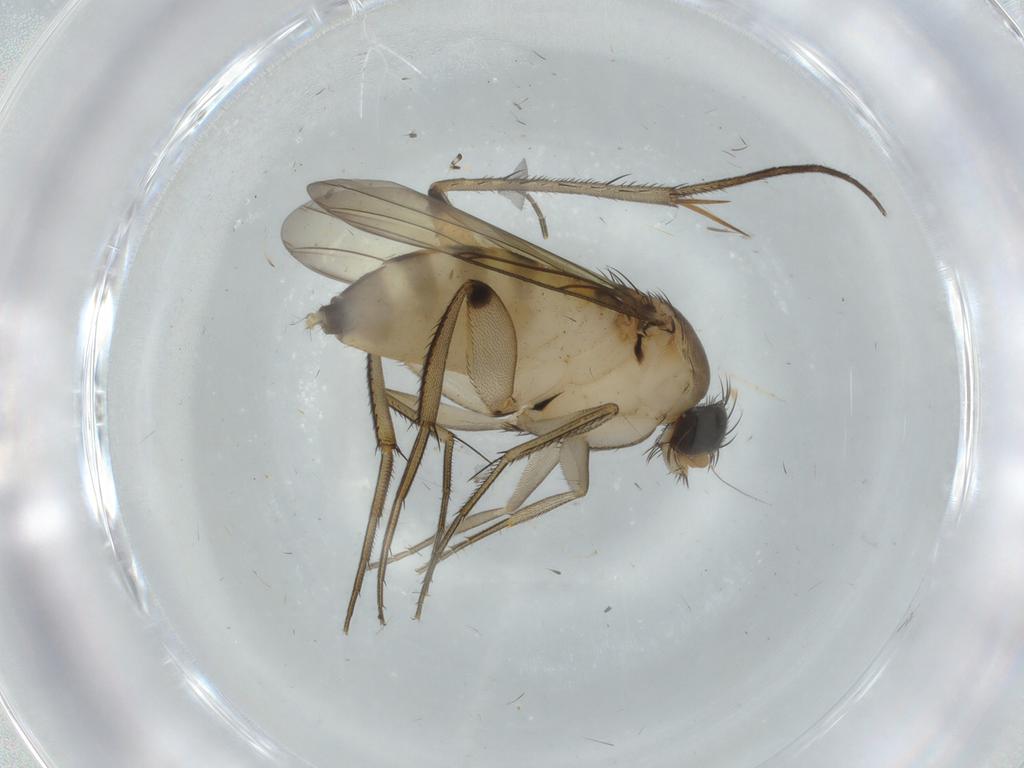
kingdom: Animalia
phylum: Arthropoda
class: Insecta
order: Diptera
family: Phoridae
